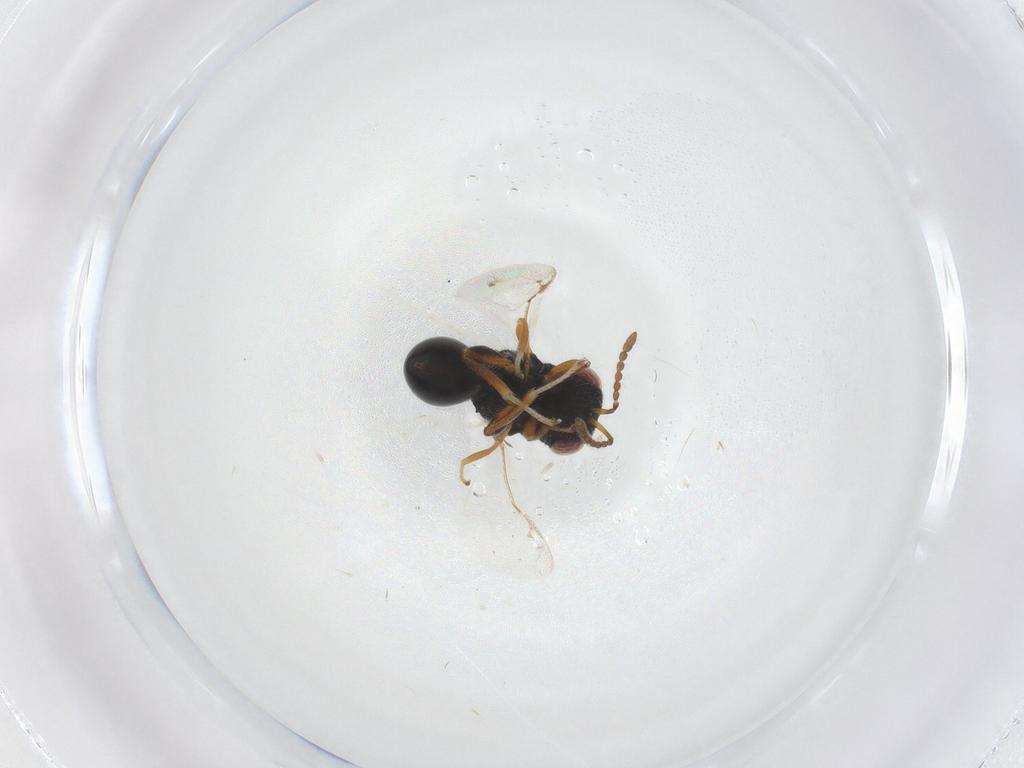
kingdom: Animalia
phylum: Arthropoda
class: Insecta
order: Hymenoptera
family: Eurytomidae
